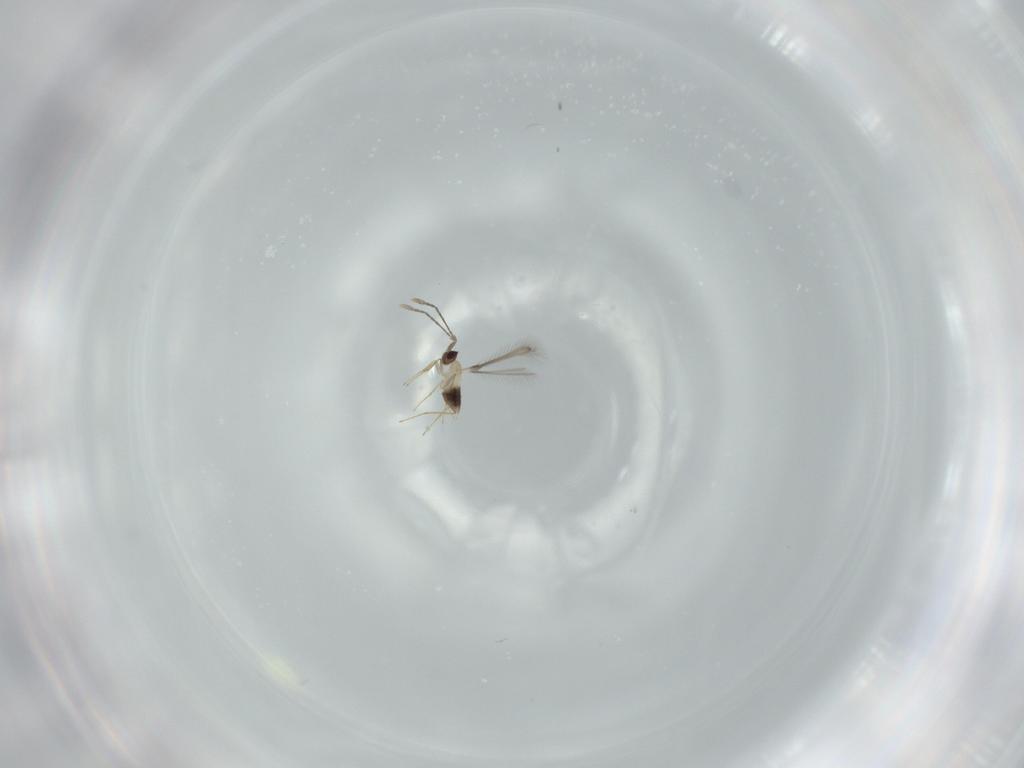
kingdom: Animalia
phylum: Arthropoda
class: Insecta
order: Hymenoptera
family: Mymaridae
